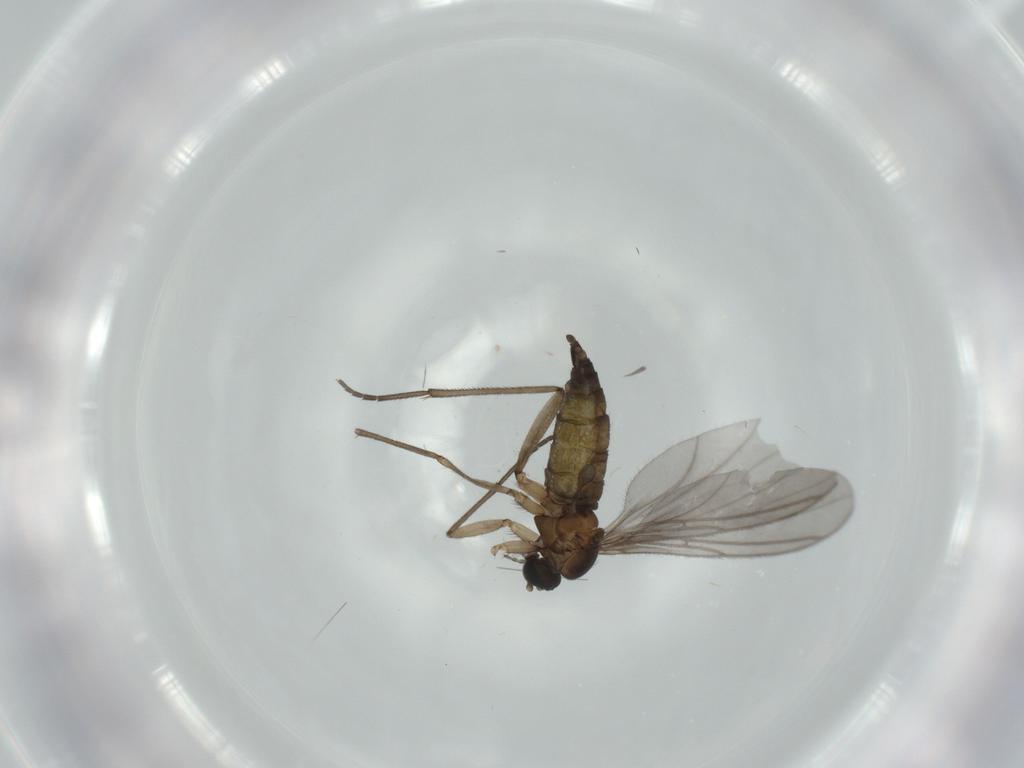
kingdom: Animalia
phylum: Arthropoda
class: Insecta
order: Diptera
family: Sciaridae
